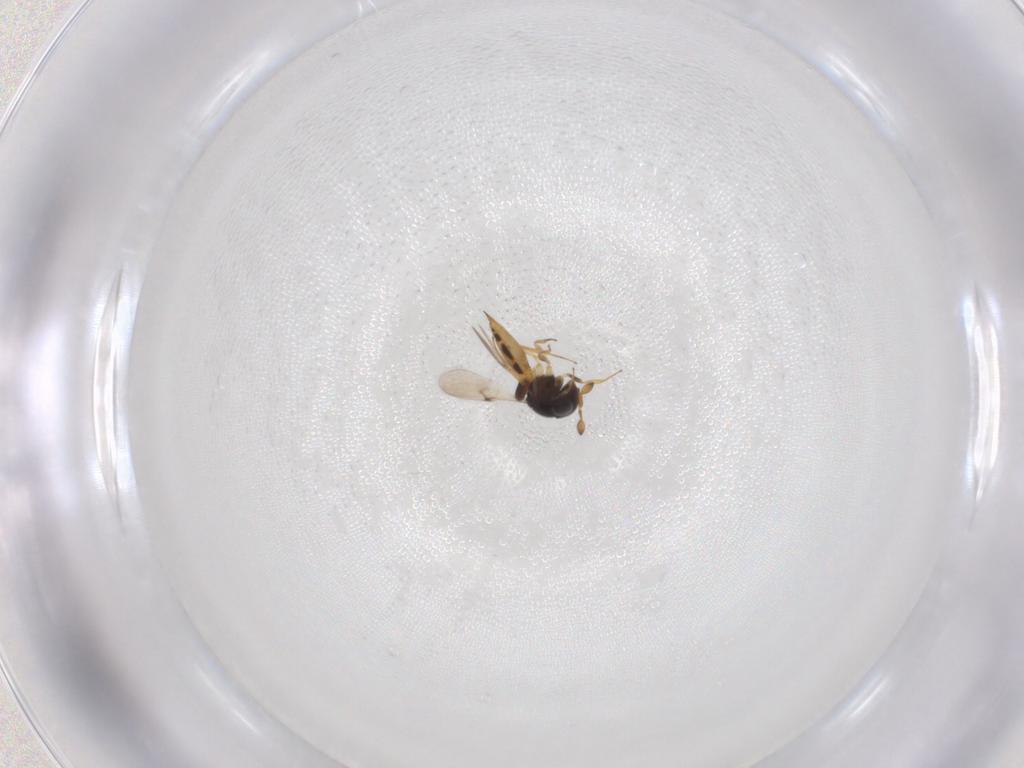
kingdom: Animalia
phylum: Arthropoda
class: Insecta
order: Hymenoptera
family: Scelionidae
